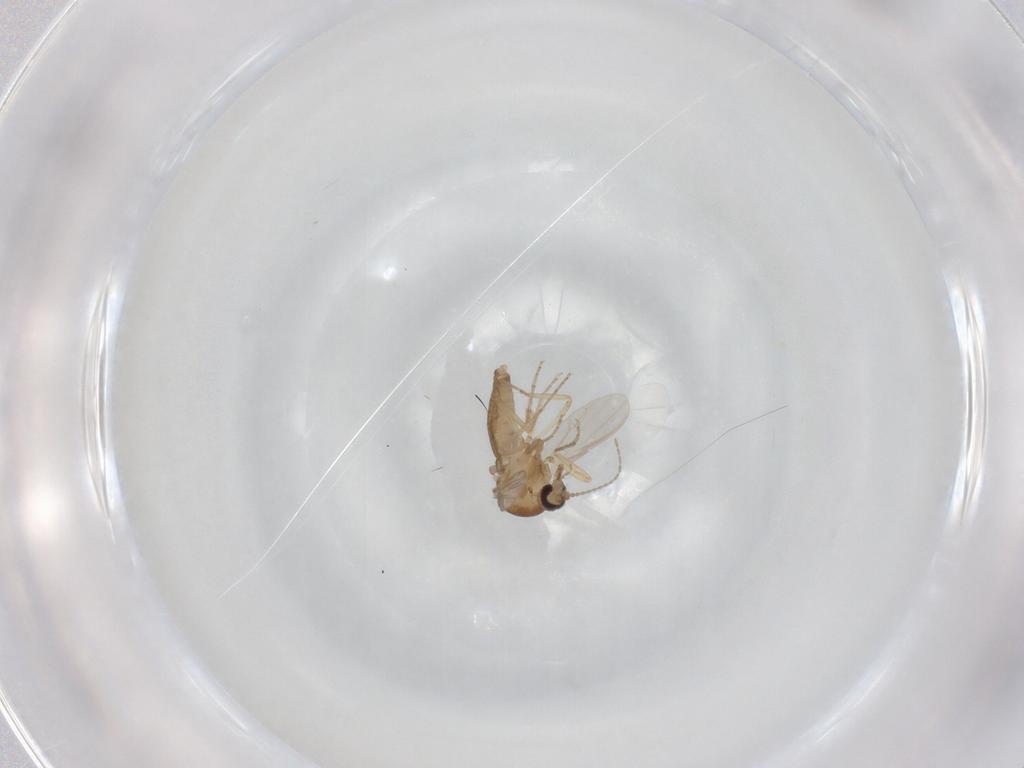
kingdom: Animalia
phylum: Arthropoda
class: Insecta
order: Diptera
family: Ceratopogonidae
